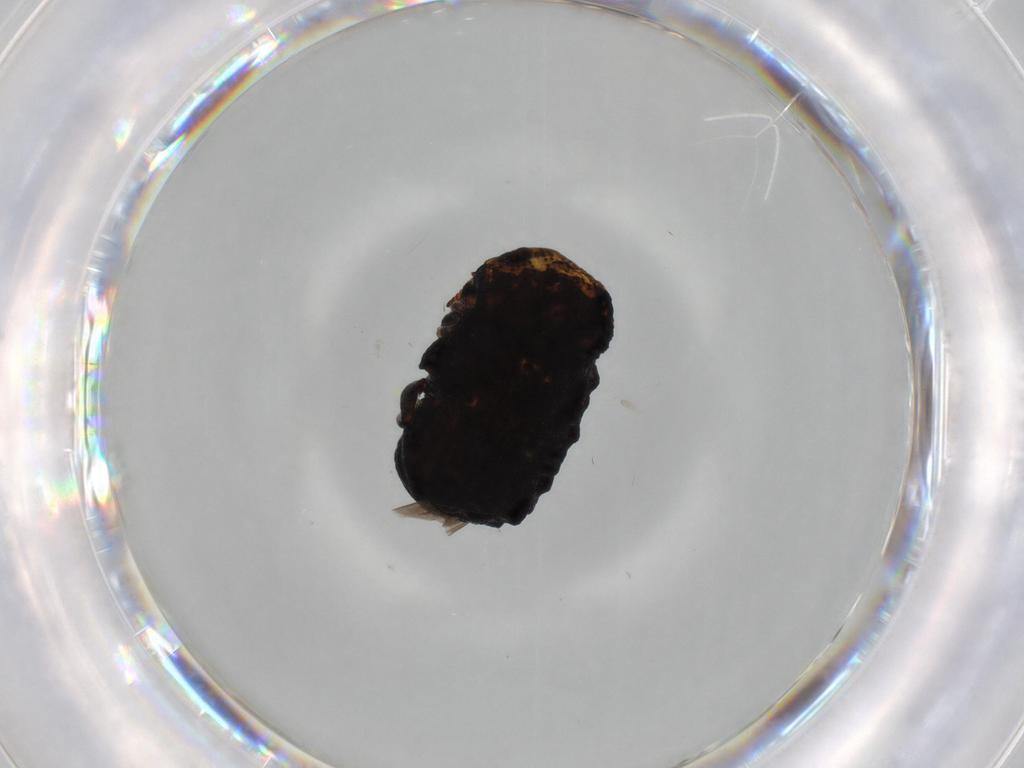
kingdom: Animalia
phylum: Arthropoda
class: Insecta
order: Coleoptera
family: Chrysomelidae
